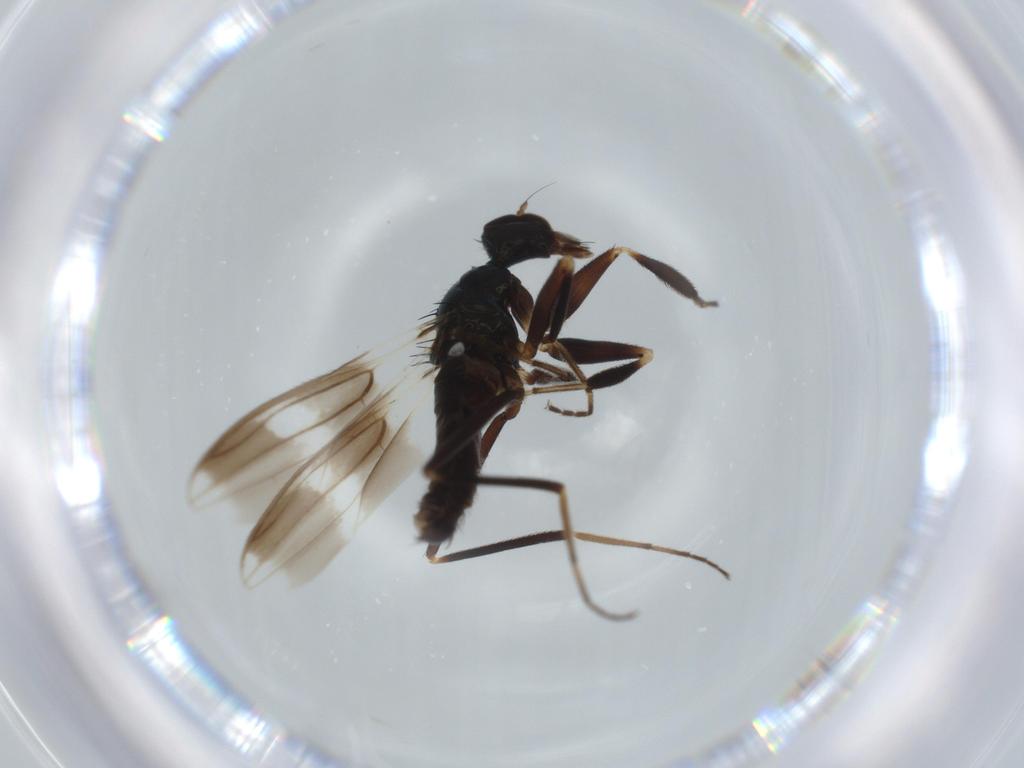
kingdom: Animalia
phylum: Arthropoda
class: Insecta
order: Diptera
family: Hybotidae
